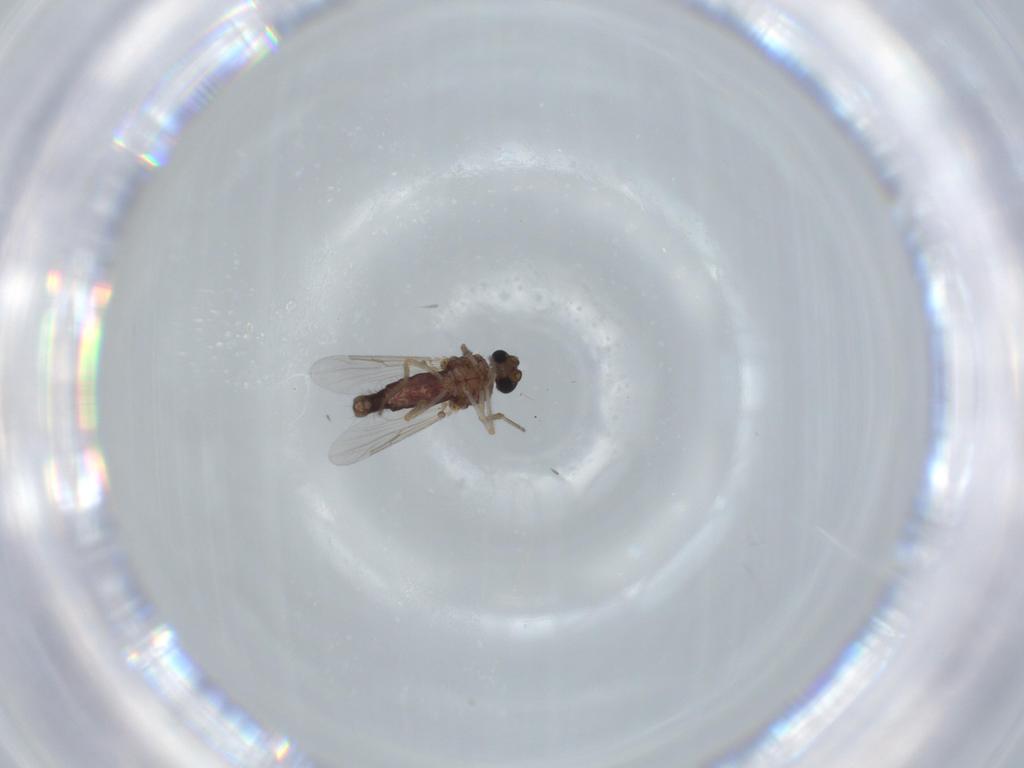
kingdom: Animalia
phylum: Arthropoda
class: Insecta
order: Diptera
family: Ceratopogonidae
